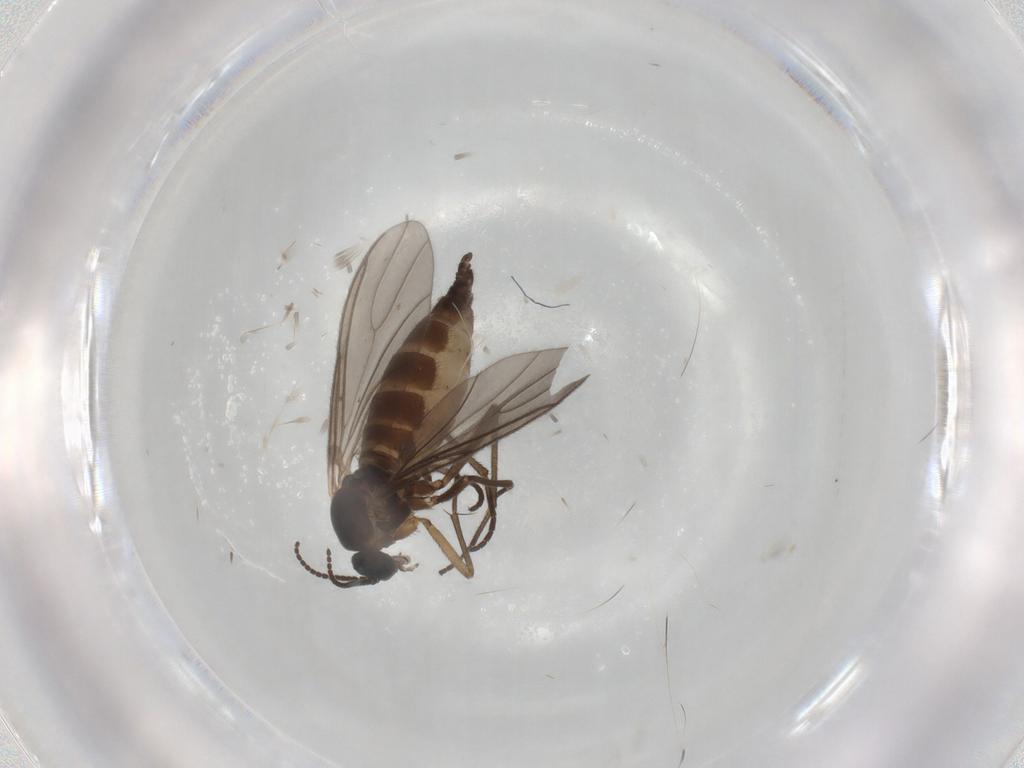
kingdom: Animalia
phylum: Arthropoda
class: Insecta
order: Diptera
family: Sciaridae
